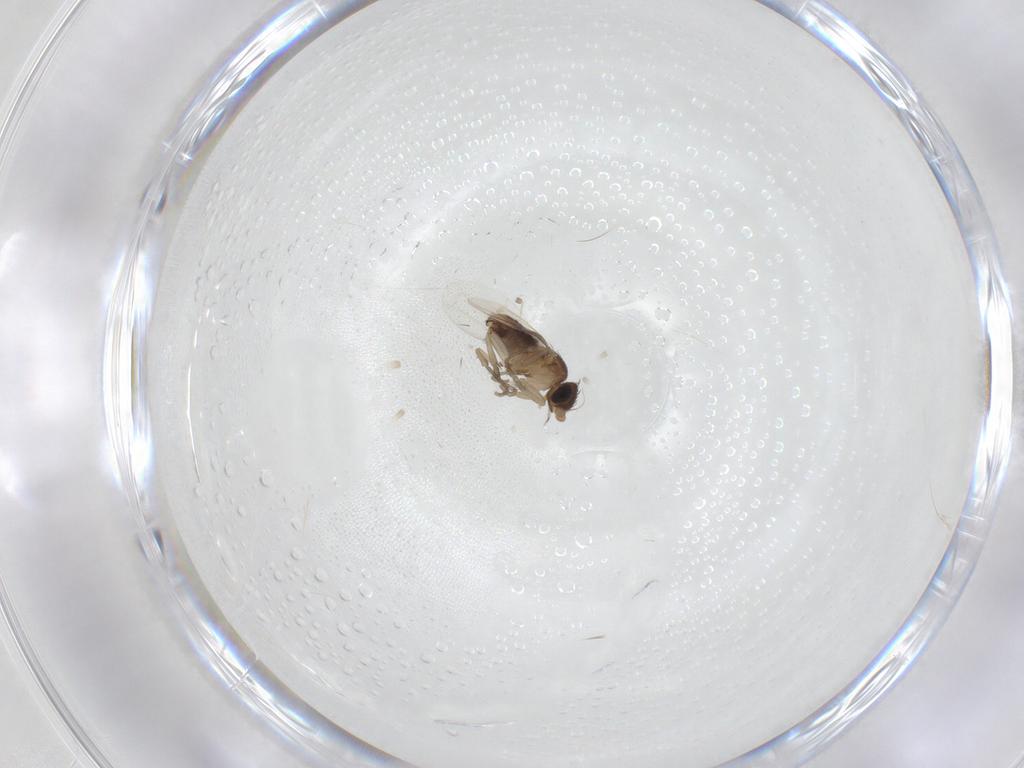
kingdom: Animalia
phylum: Arthropoda
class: Insecta
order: Diptera
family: Phoridae
